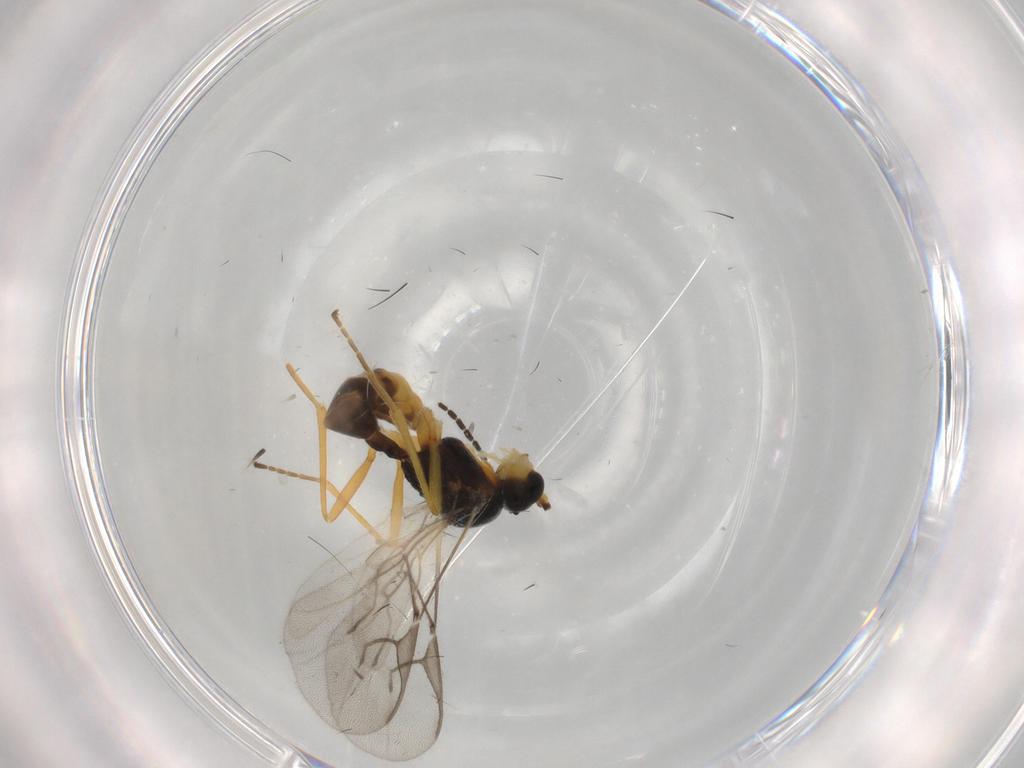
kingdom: Animalia
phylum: Arthropoda
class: Insecta
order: Hymenoptera
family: Braconidae
